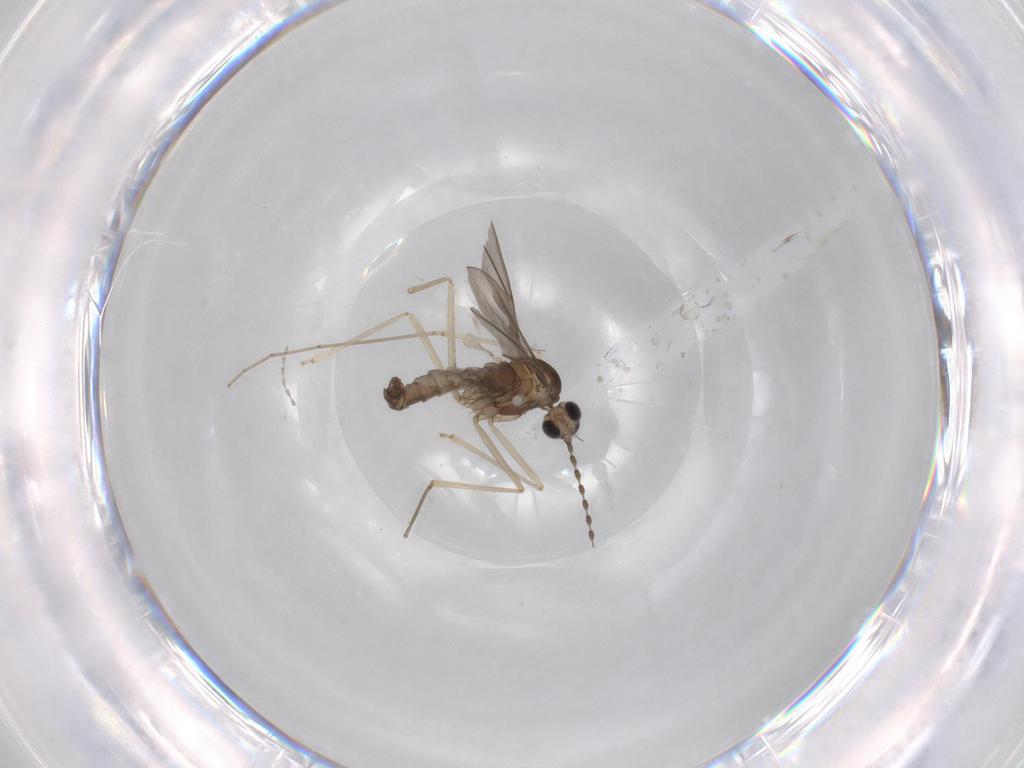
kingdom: Animalia
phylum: Arthropoda
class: Insecta
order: Diptera
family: Cecidomyiidae
